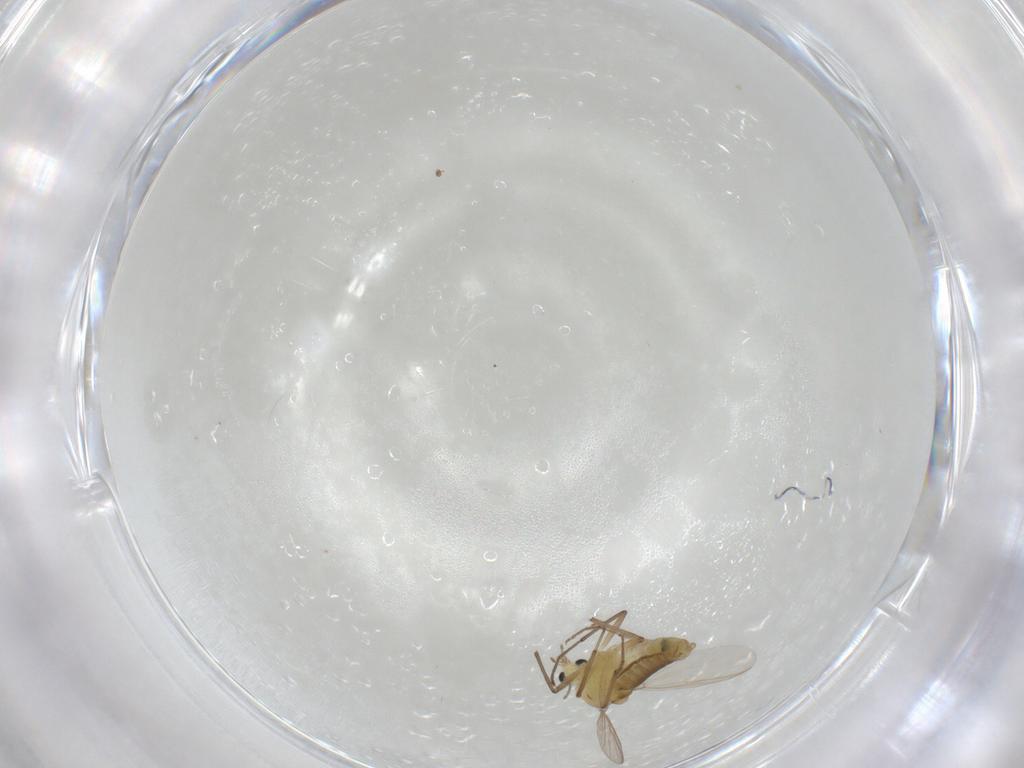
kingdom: Animalia
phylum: Arthropoda
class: Insecta
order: Diptera
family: Chironomidae
